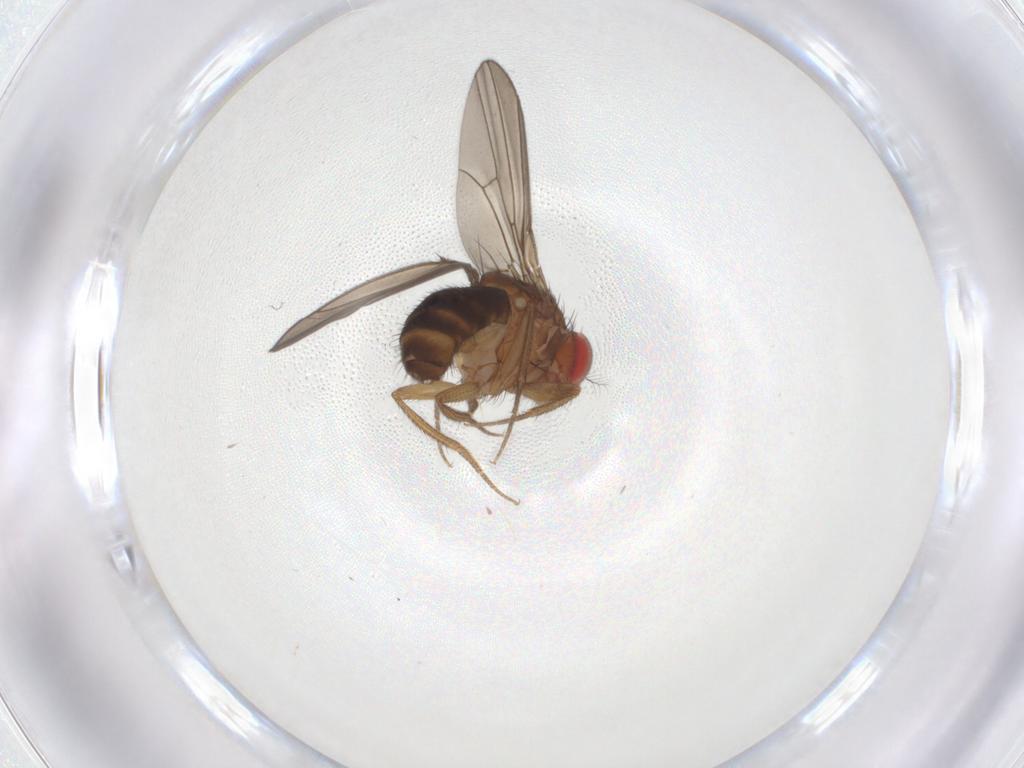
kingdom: Animalia
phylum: Arthropoda
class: Insecta
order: Diptera
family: Drosophilidae
